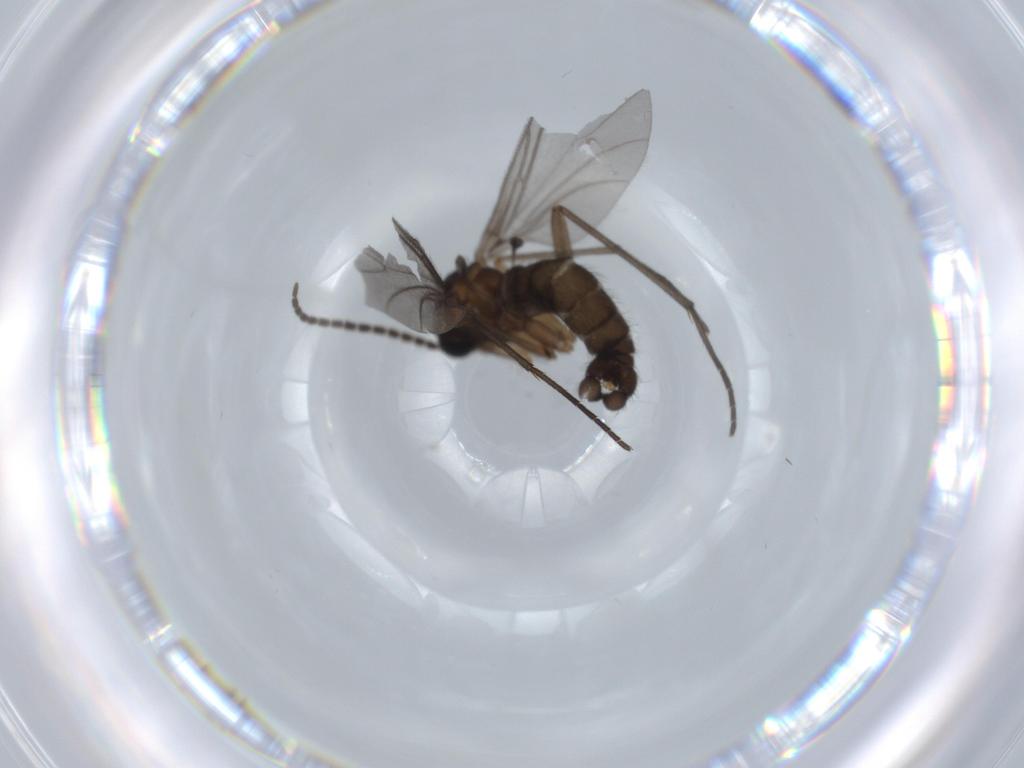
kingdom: Animalia
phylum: Arthropoda
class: Insecta
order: Diptera
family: Sciaridae
